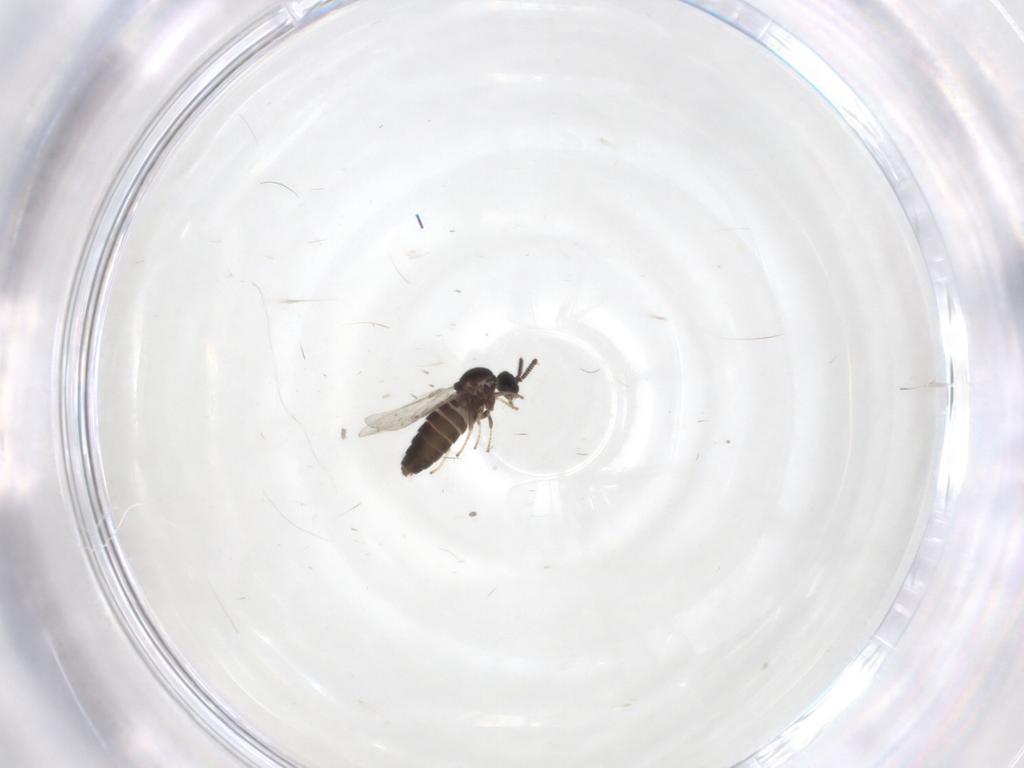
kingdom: Animalia
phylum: Arthropoda
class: Insecta
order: Diptera
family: Scatopsidae
